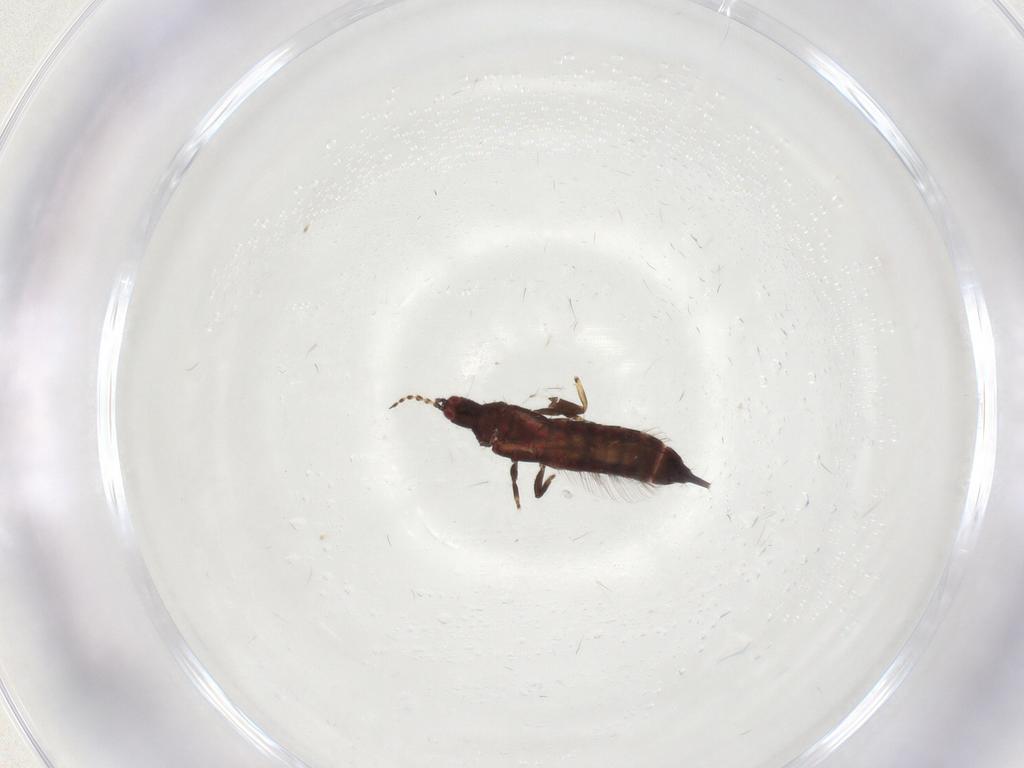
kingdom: Animalia
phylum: Arthropoda
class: Insecta
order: Thysanoptera
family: Phlaeothripidae
